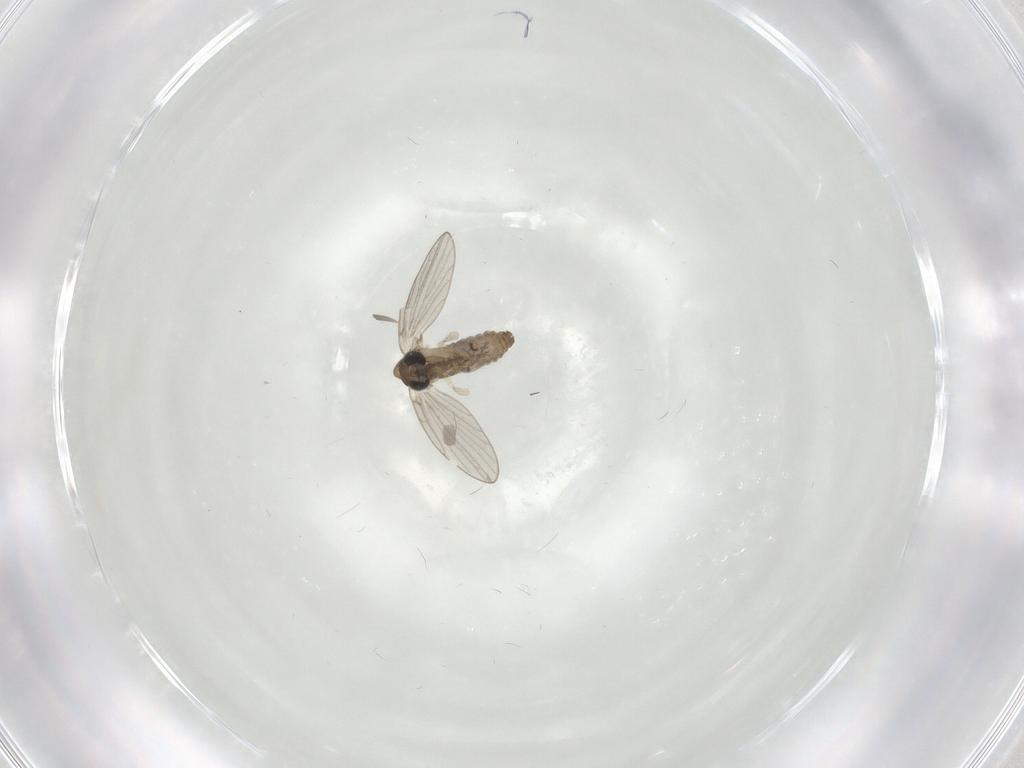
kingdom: Animalia
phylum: Arthropoda
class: Insecta
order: Diptera
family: Psychodidae
